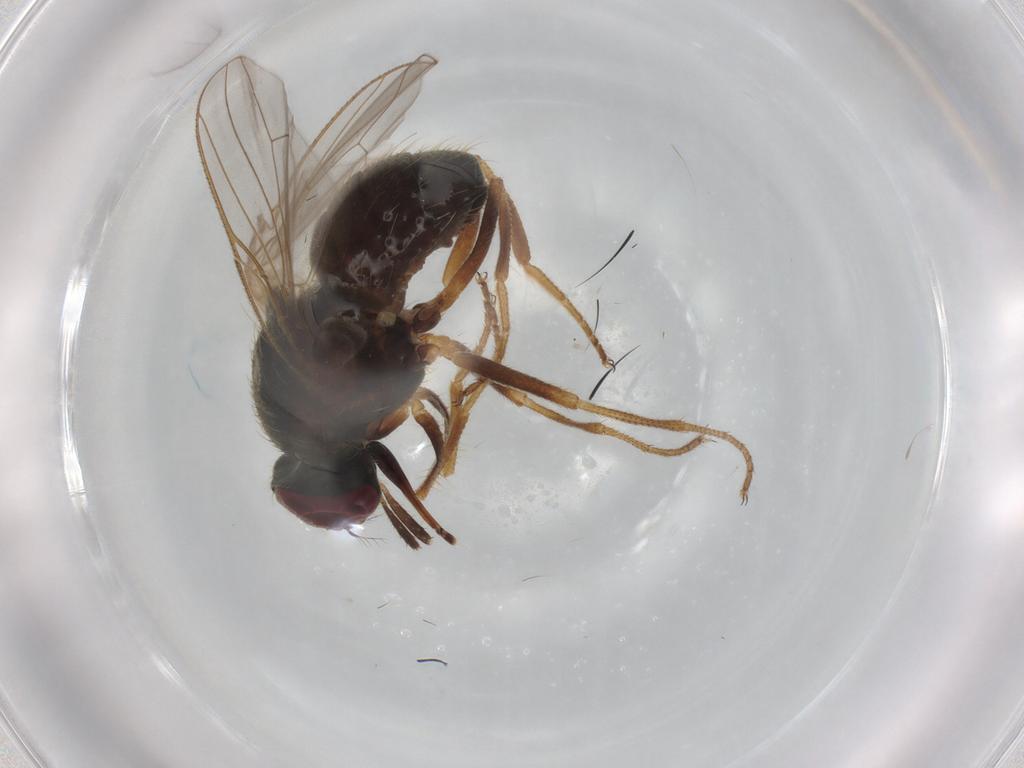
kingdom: Animalia
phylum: Arthropoda
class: Insecta
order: Diptera
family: Muscidae
